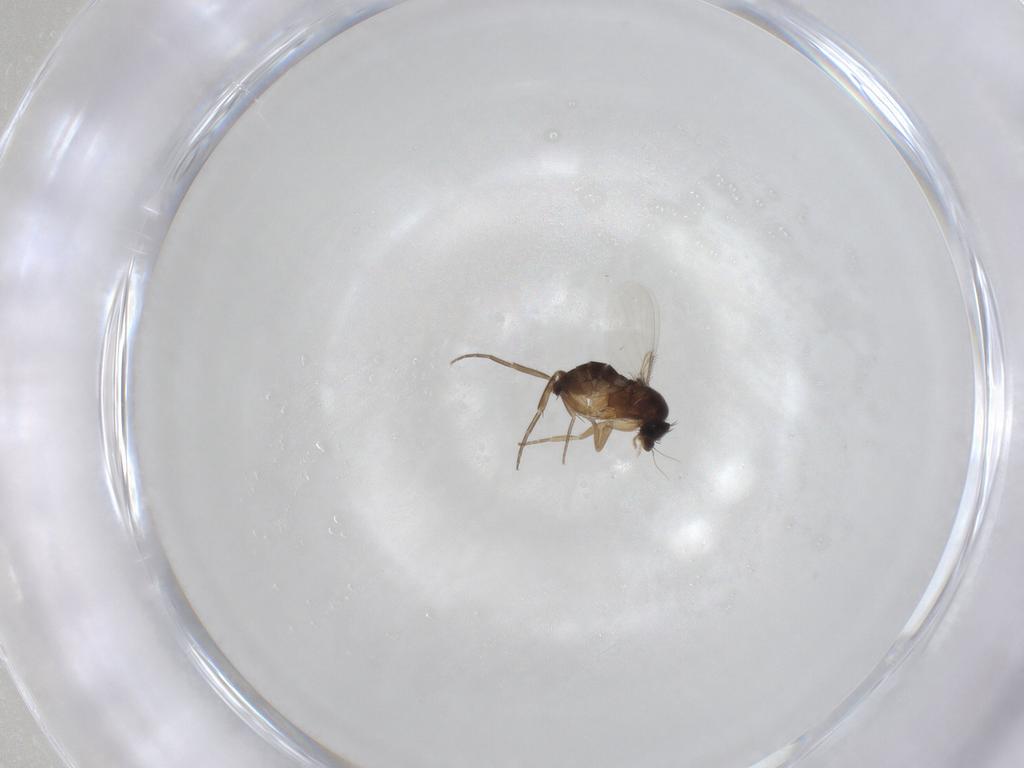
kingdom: Animalia
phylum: Arthropoda
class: Insecta
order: Diptera
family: Phoridae
